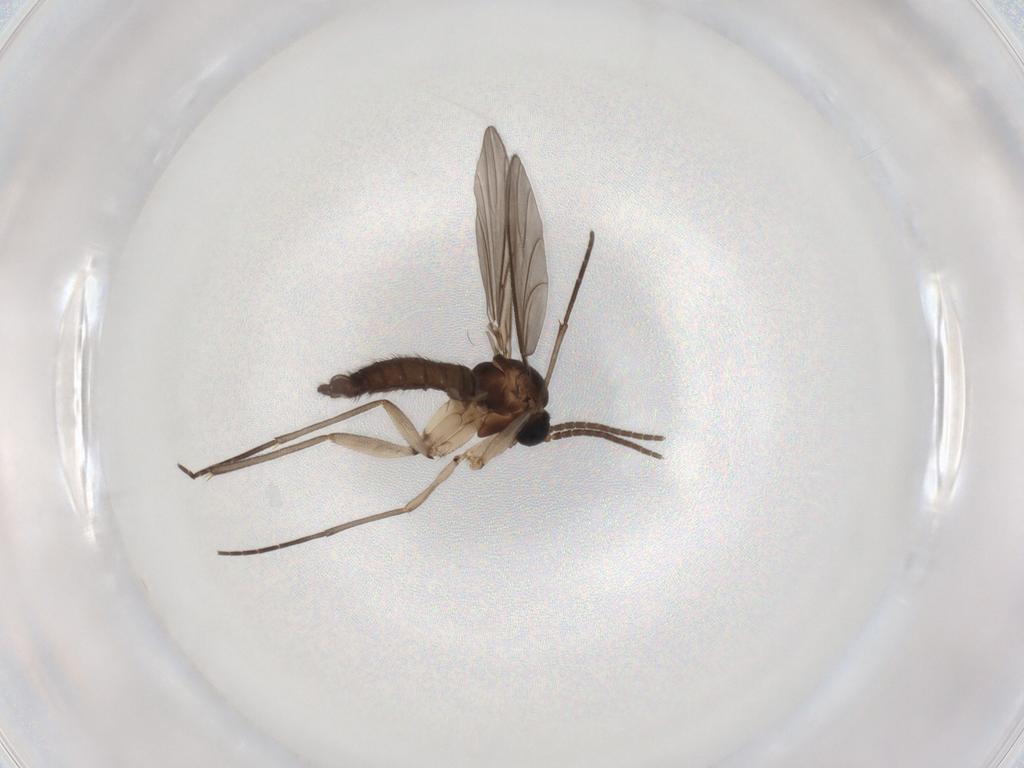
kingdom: Animalia
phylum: Arthropoda
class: Insecta
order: Diptera
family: Sciaridae
